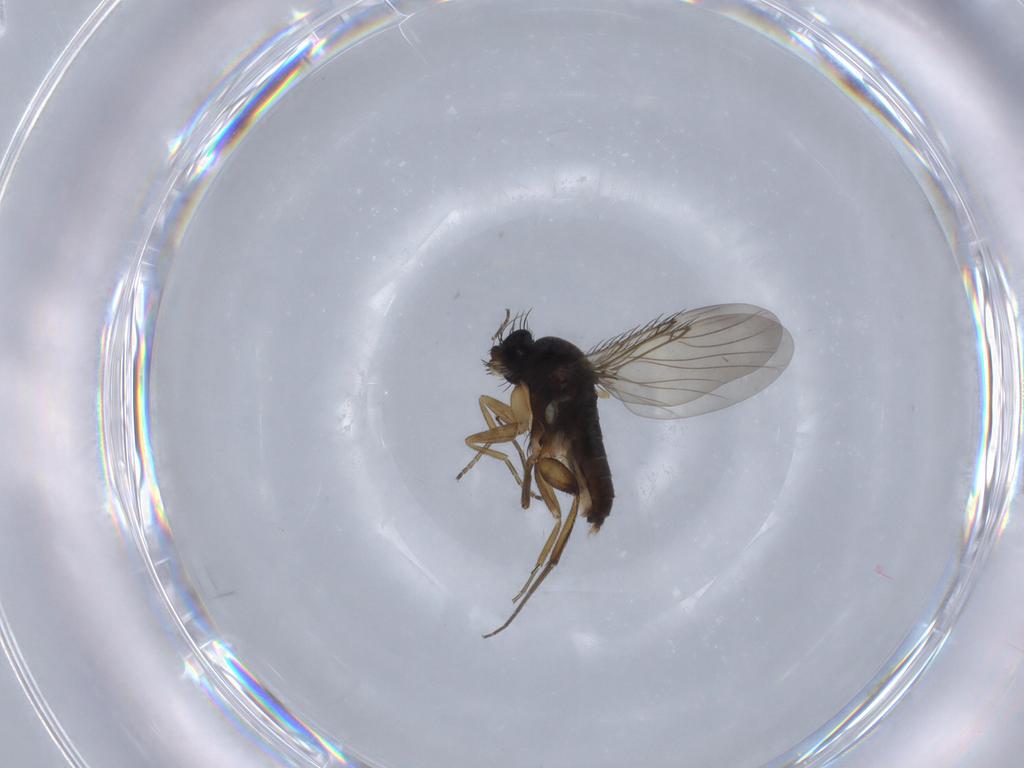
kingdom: Animalia
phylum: Arthropoda
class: Insecta
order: Diptera
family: Phoridae
